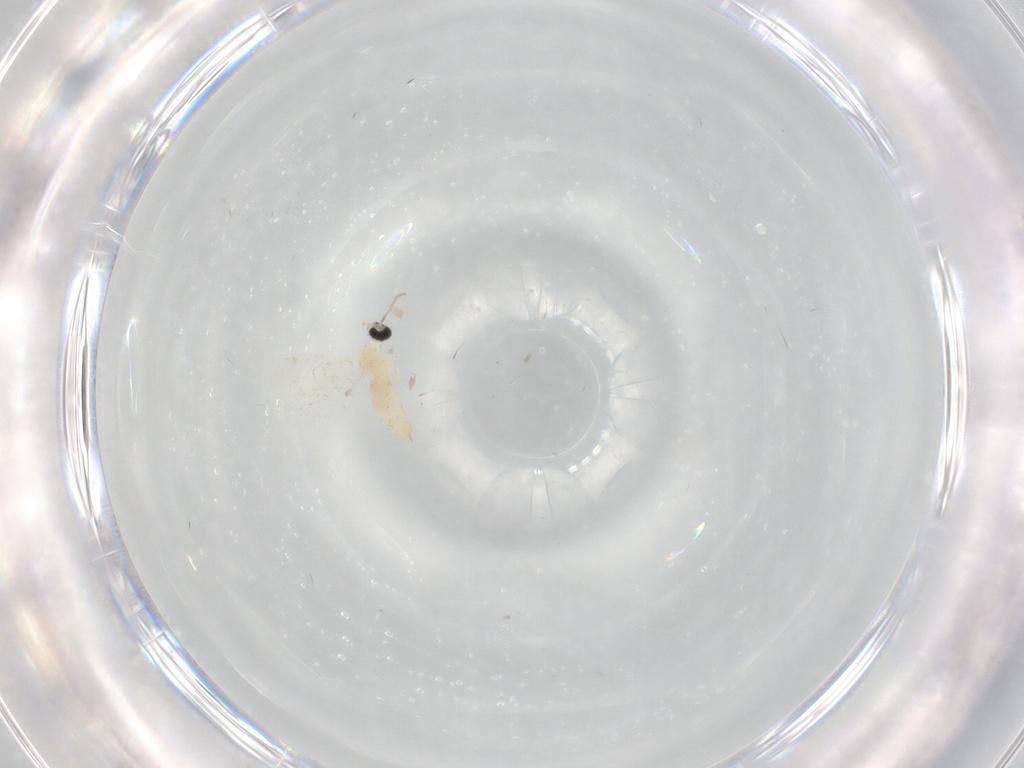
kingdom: Animalia
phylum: Arthropoda
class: Insecta
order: Diptera
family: Cecidomyiidae
